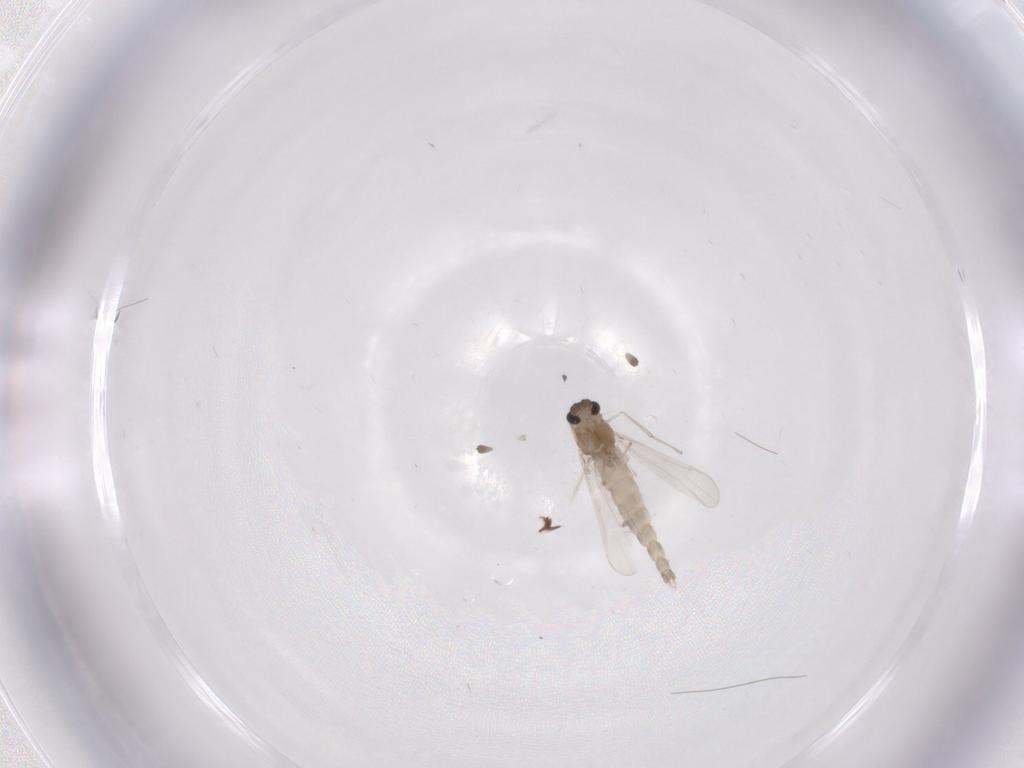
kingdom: Animalia
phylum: Arthropoda
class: Insecta
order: Diptera
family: Chironomidae
